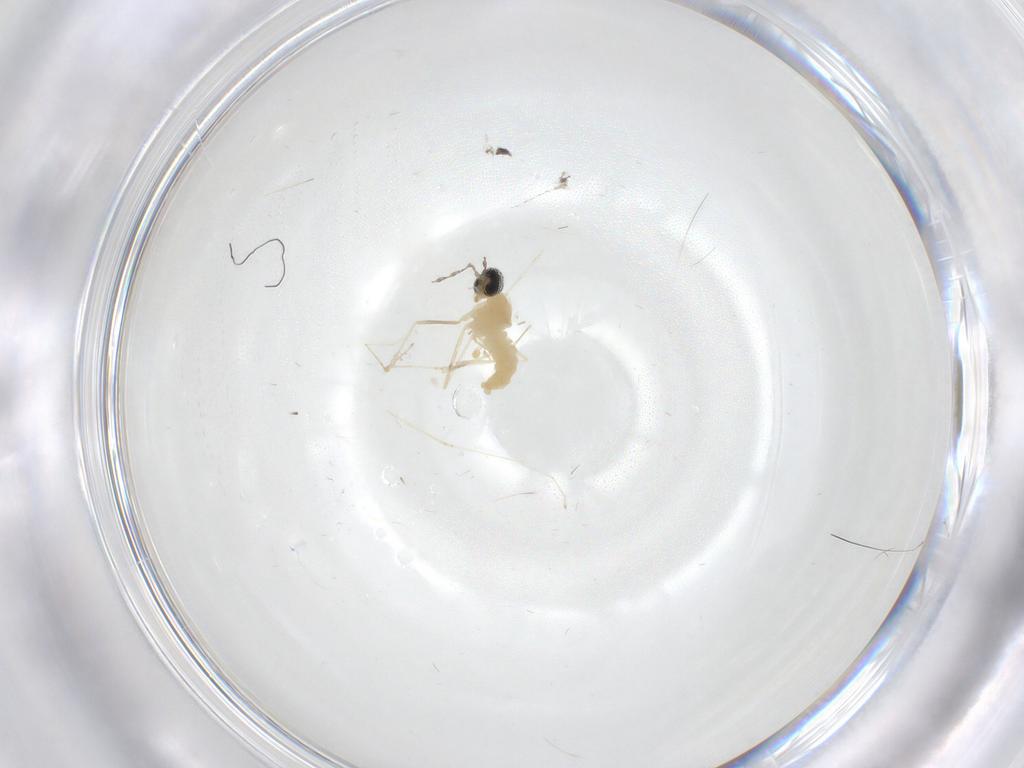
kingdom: Animalia
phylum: Arthropoda
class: Insecta
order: Diptera
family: Cecidomyiidae
